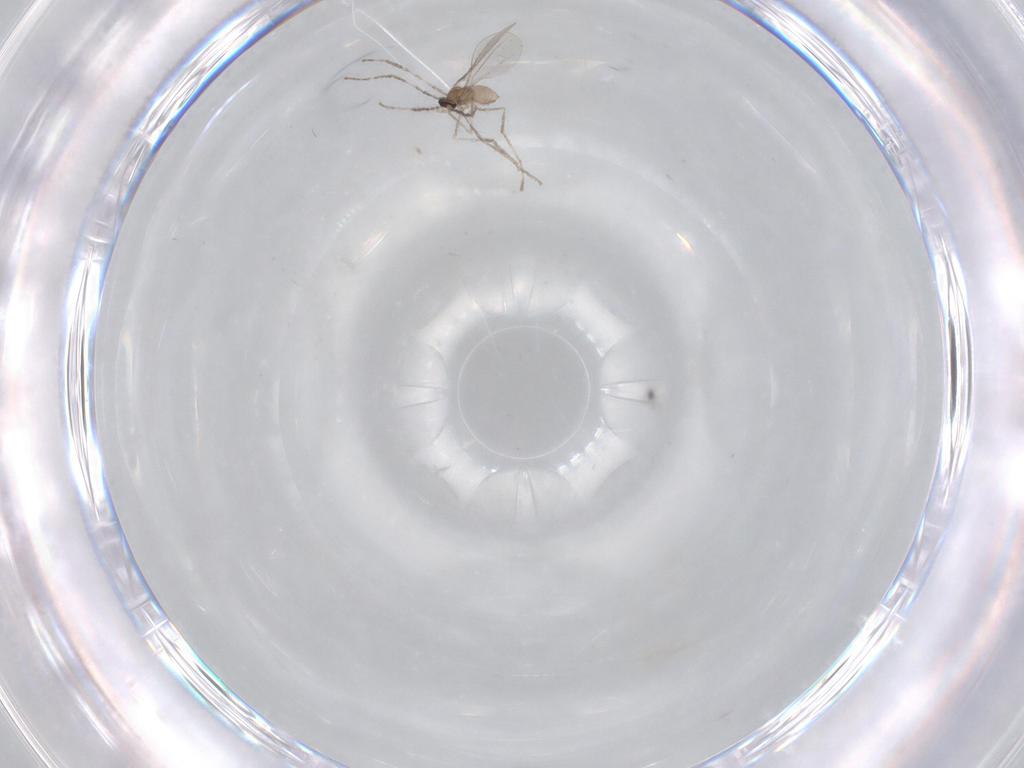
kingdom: Animalia
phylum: Arthropoda
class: Insecta
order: Diptera
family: Cecidomyiidae
